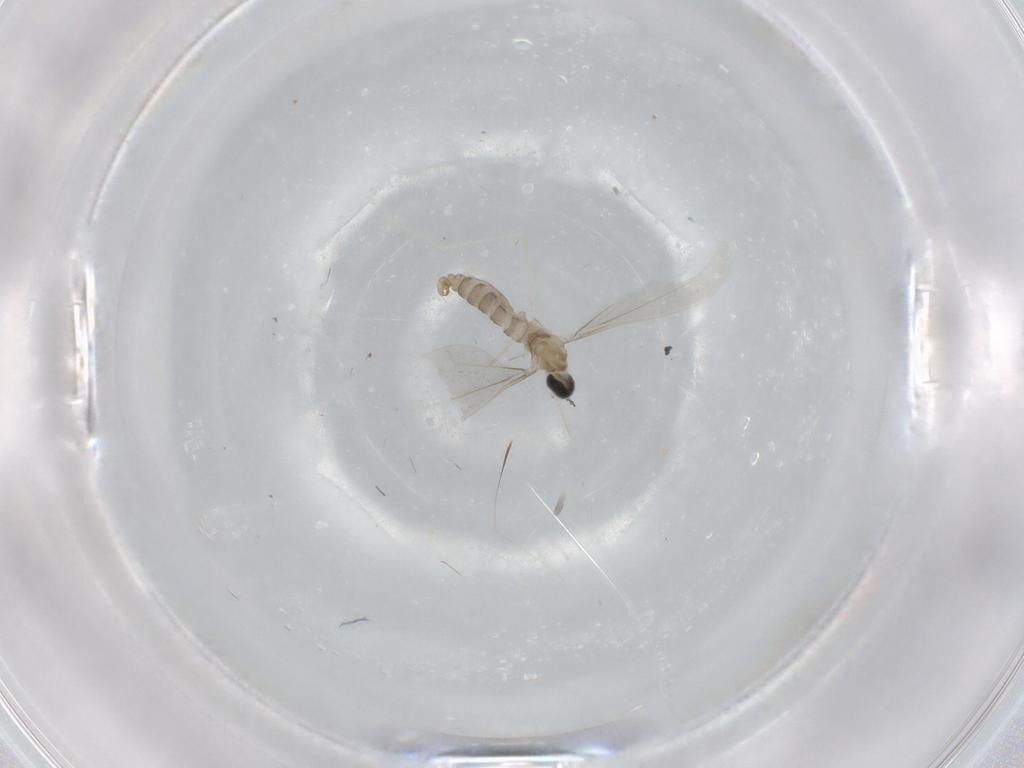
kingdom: Animalia
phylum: Arthropoda
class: Insecta
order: Diptera
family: Cecidomyiidae
